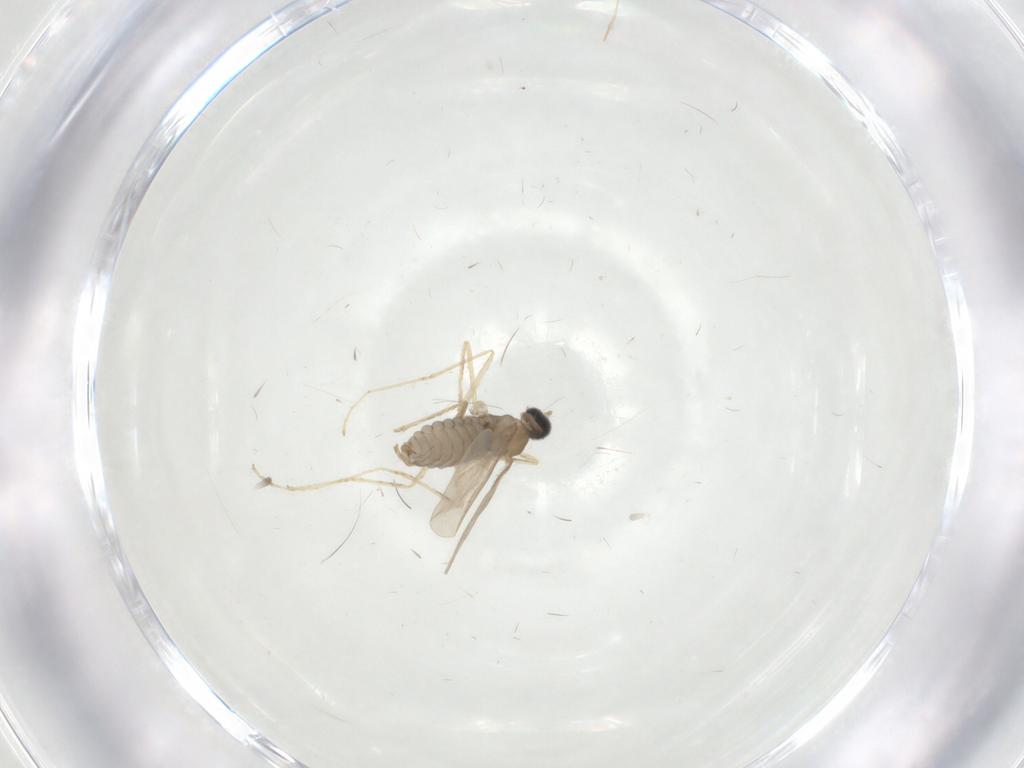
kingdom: Animalia
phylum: Arthropoda
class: Insecta
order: Diptera
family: Cecidomyiidae
